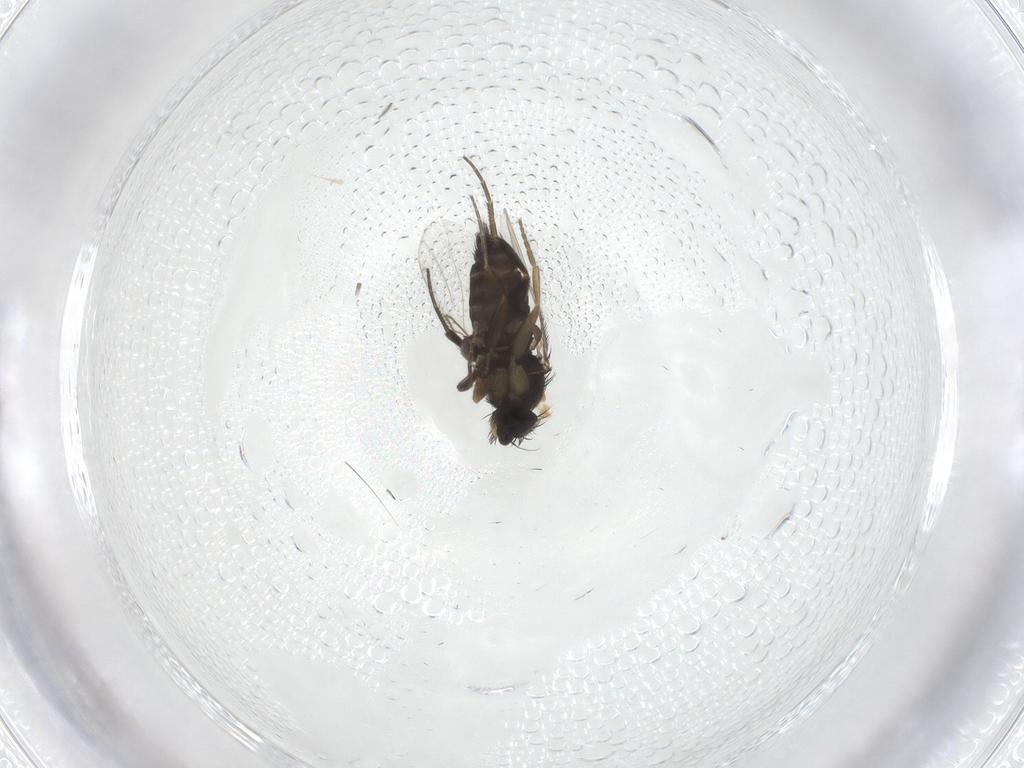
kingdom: Animalia
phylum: Arthropoda
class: Insecta
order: Diptera
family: Phoridae
